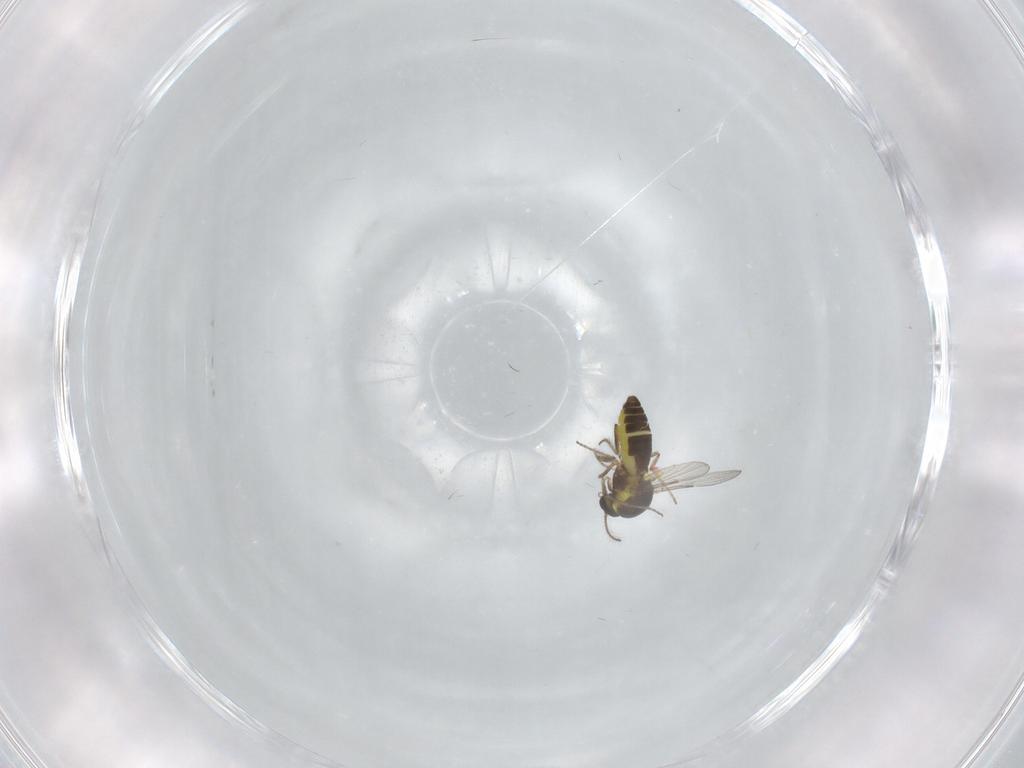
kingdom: Animalia
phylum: Arthropoda
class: Insecta
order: Diptera
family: Ceratopogonidae
